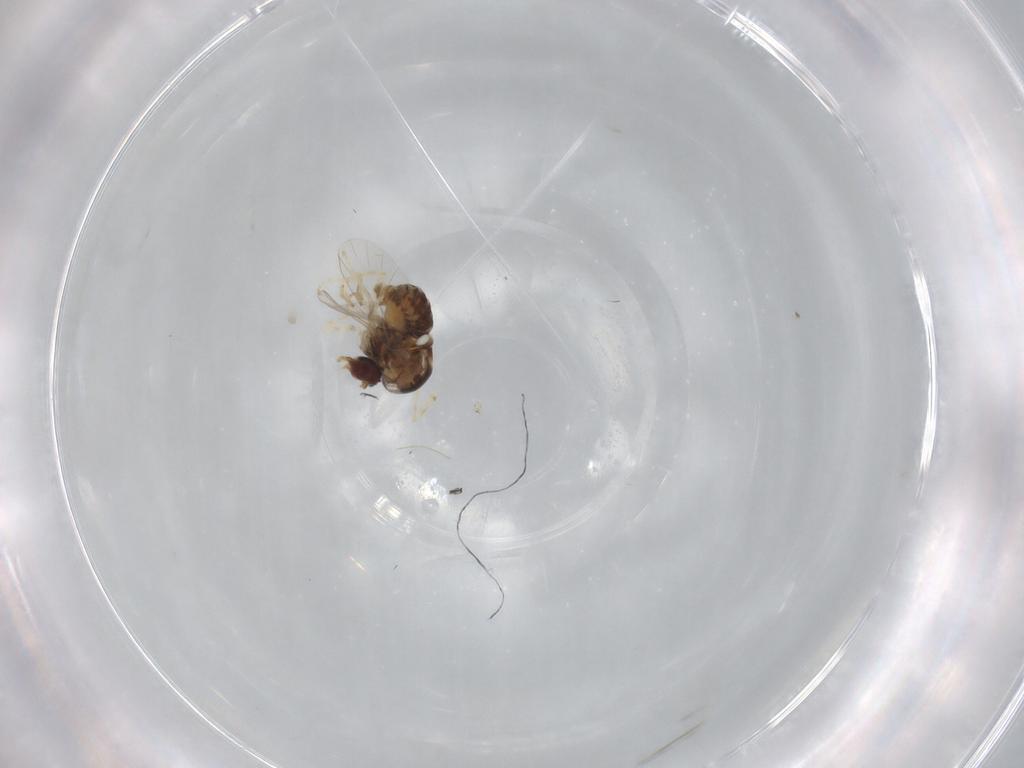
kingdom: Animalia
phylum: Arthropoda
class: Insecta
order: Diptera
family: Bombyliidae
